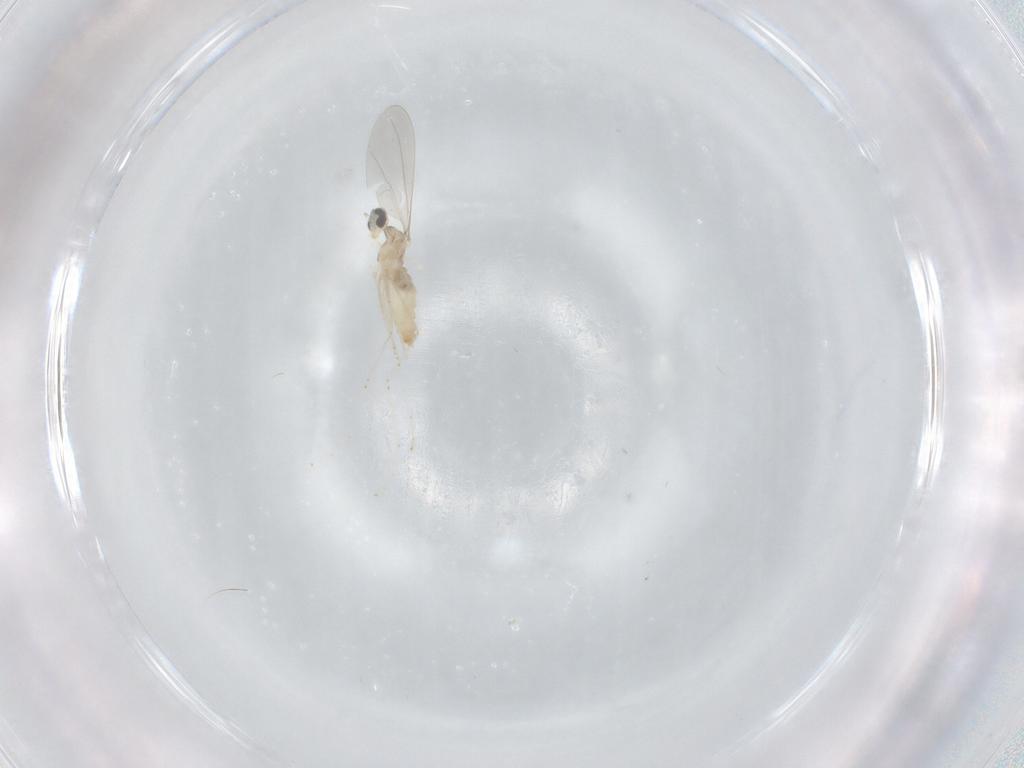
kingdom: Animalia
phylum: Arthropoda
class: Insecta
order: Diptera
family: Cecidomyiidae
